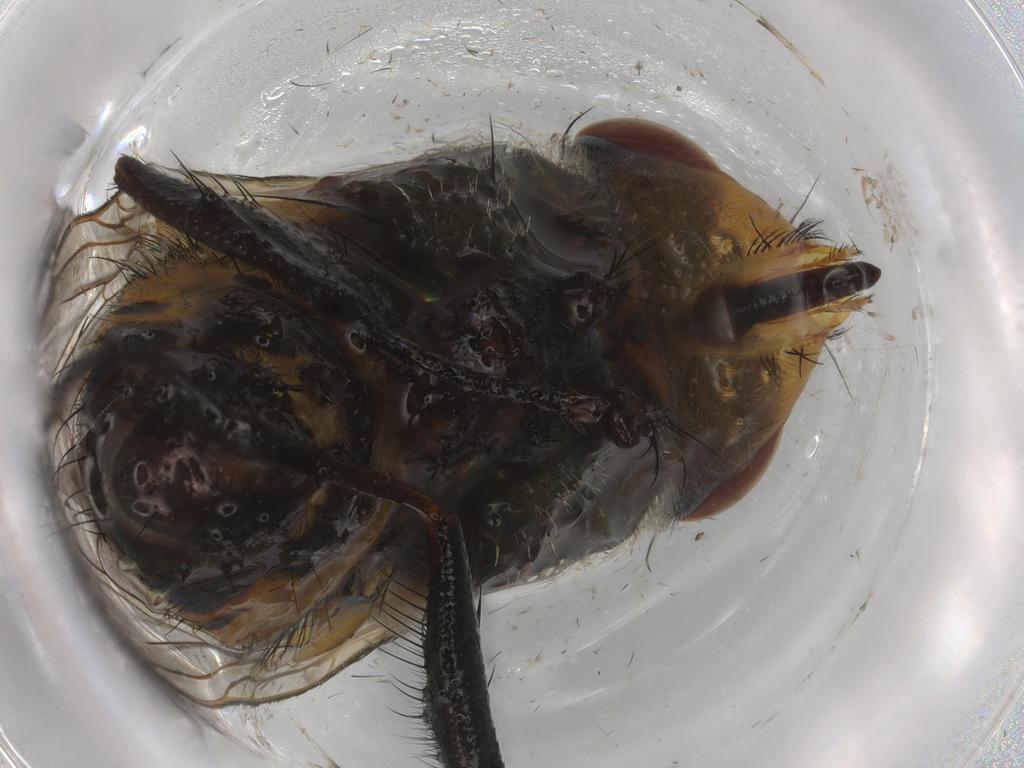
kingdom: Animalia
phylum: Arthropoda
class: Insecta
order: Diptera
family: Calliphoridae
